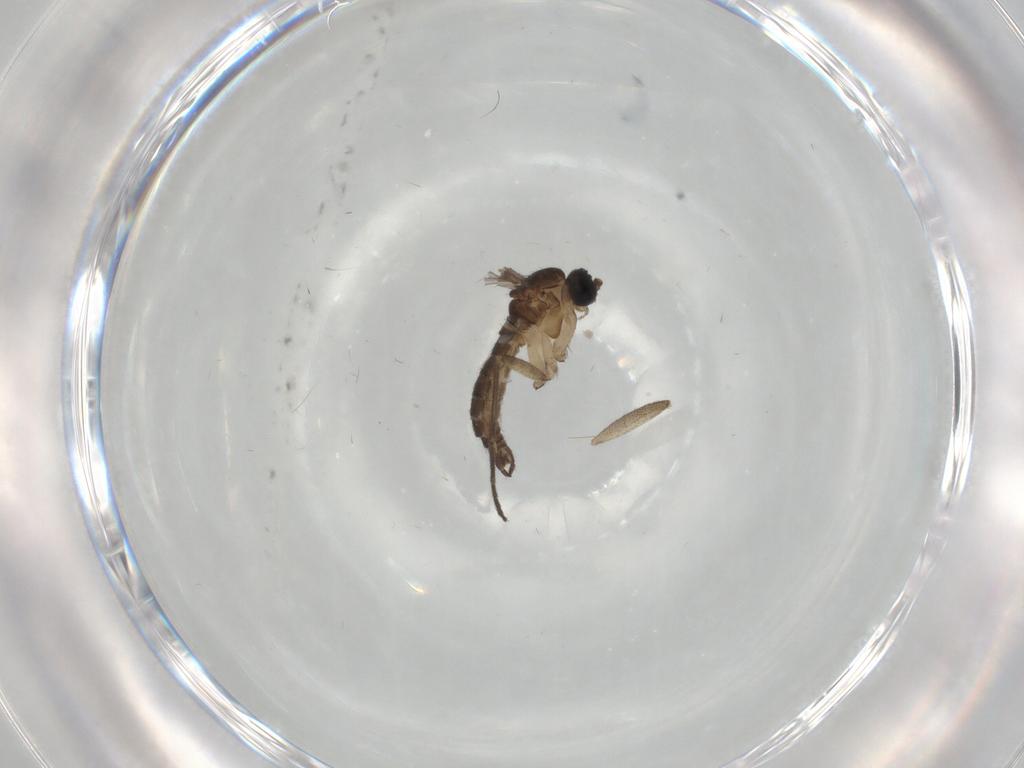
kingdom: Animalia
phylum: Arthropoda
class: Insecta
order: Diptera
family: Sciaridae
